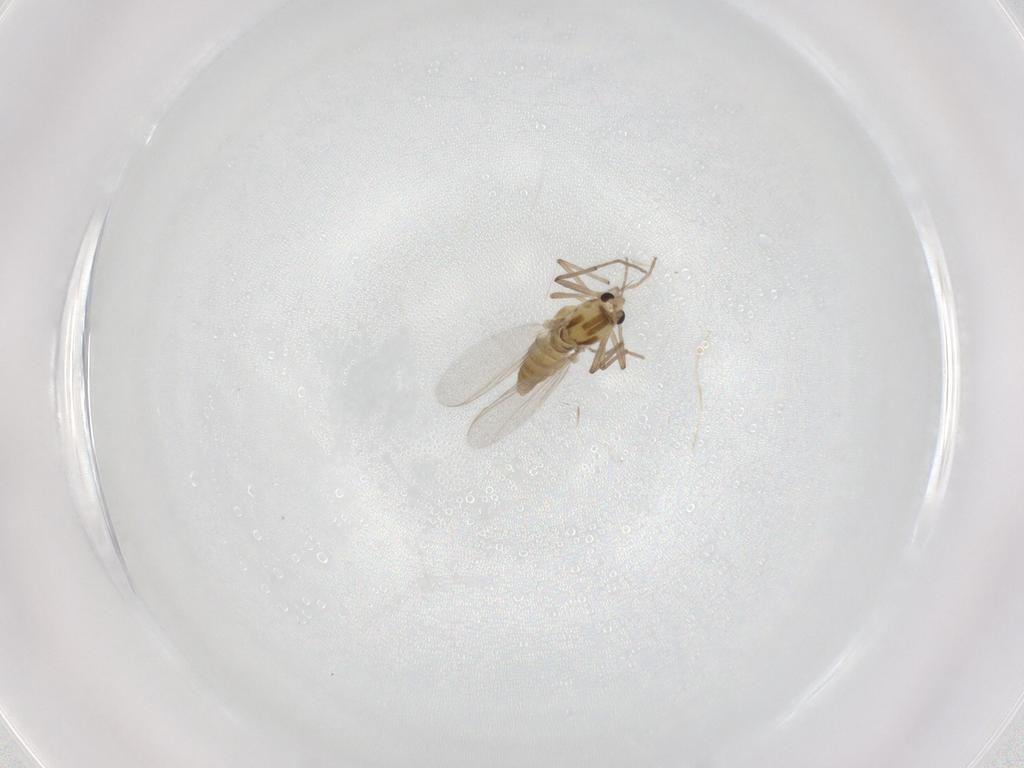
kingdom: Animalia
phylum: Arthropoda
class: Insecta
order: Diptera
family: Chironomidae
